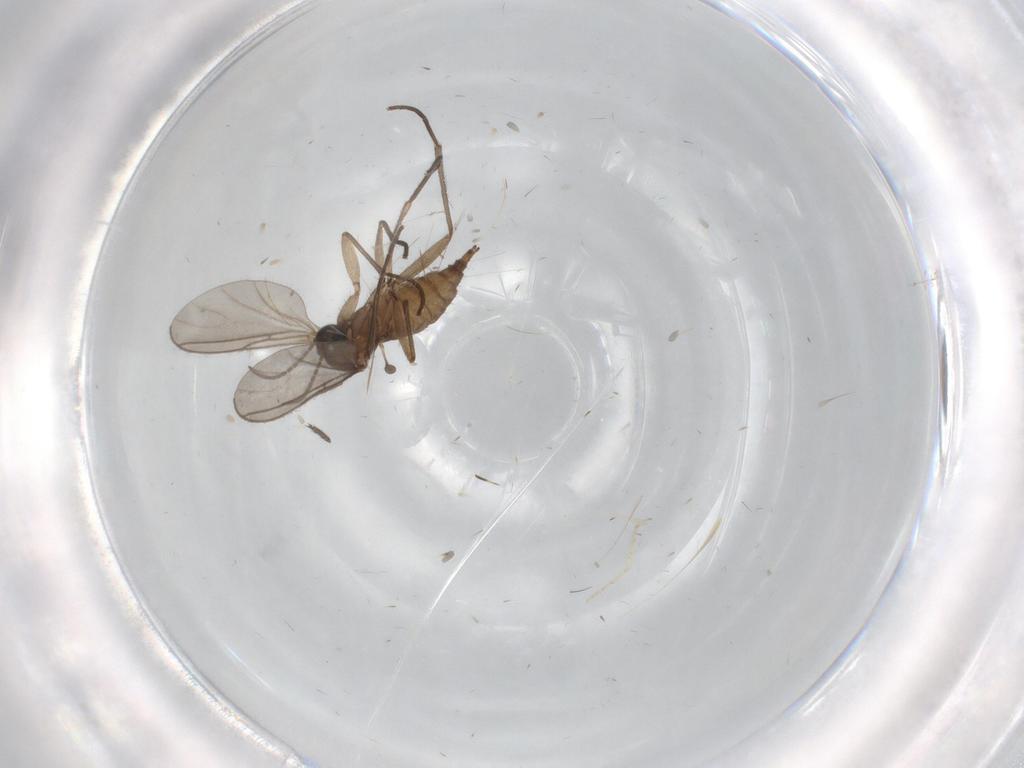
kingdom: Animalia
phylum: Arthropoda
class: Insecta
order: Diptera
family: Sciaridae
